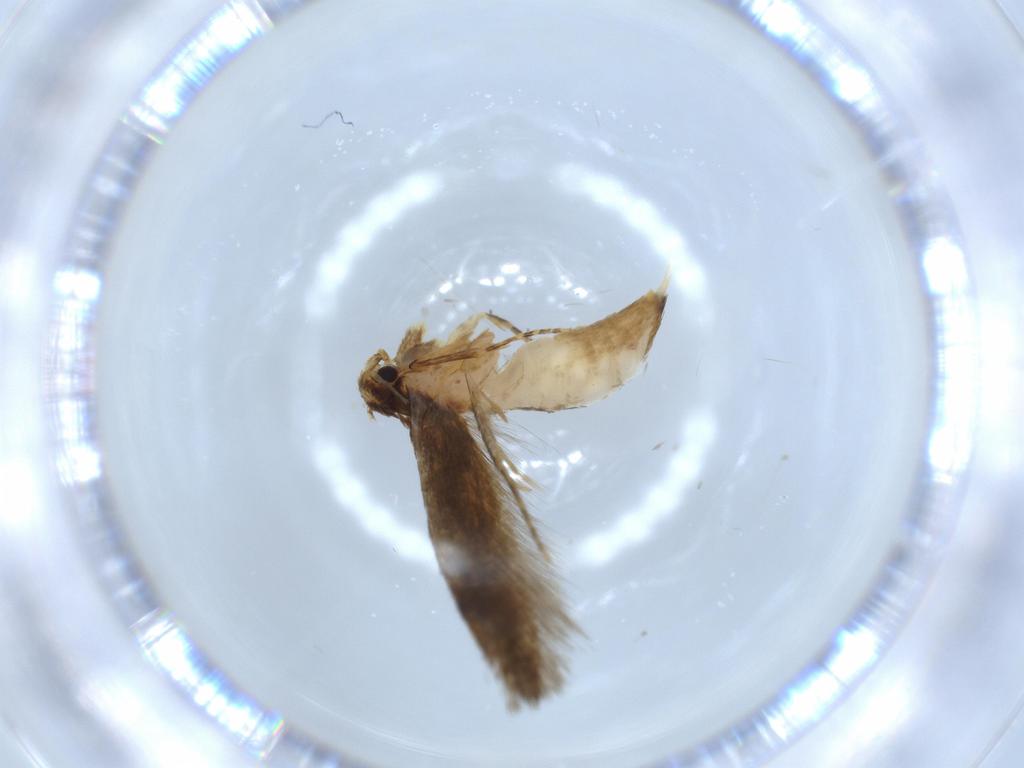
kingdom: Animalia
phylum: Arthropoda
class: Insecta
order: Lepidoptera
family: Tineidae
